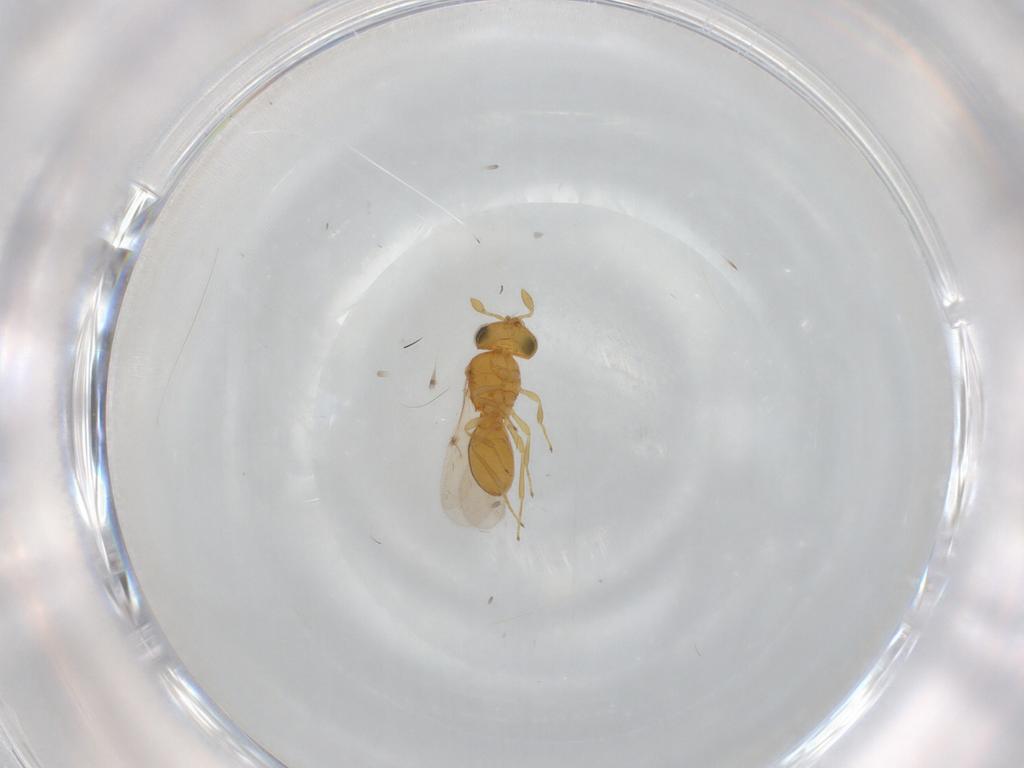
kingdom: Animalia
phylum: Arthropoda
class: Insecta
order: Hymenoptera
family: Scelionidae
